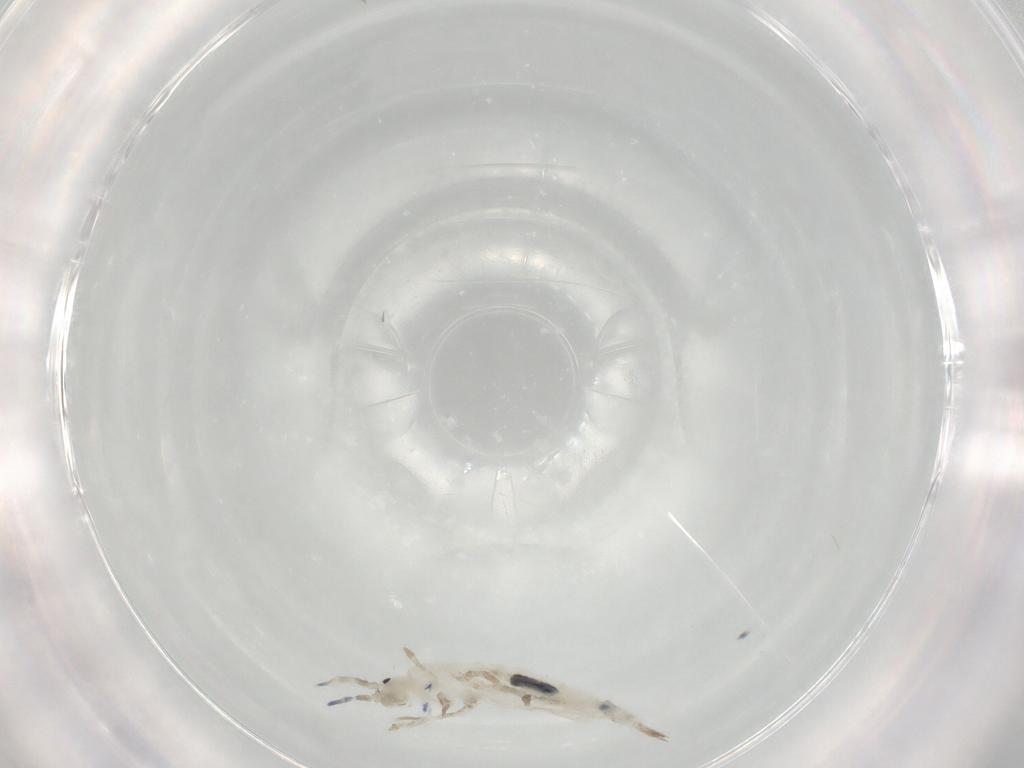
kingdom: Animalia
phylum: Arthropoda
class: Collembola
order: Entomobryomorpha
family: Entomobryidae
